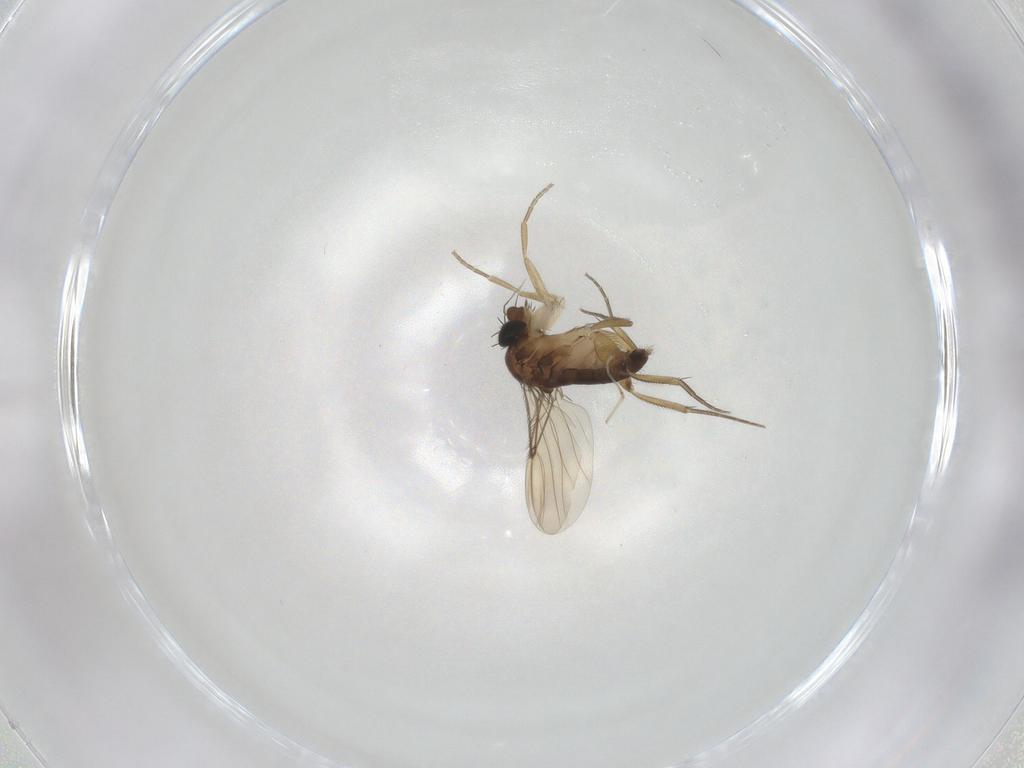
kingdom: Animalia
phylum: Arthropoda
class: Insecta
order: Diptera
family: Phoridae
